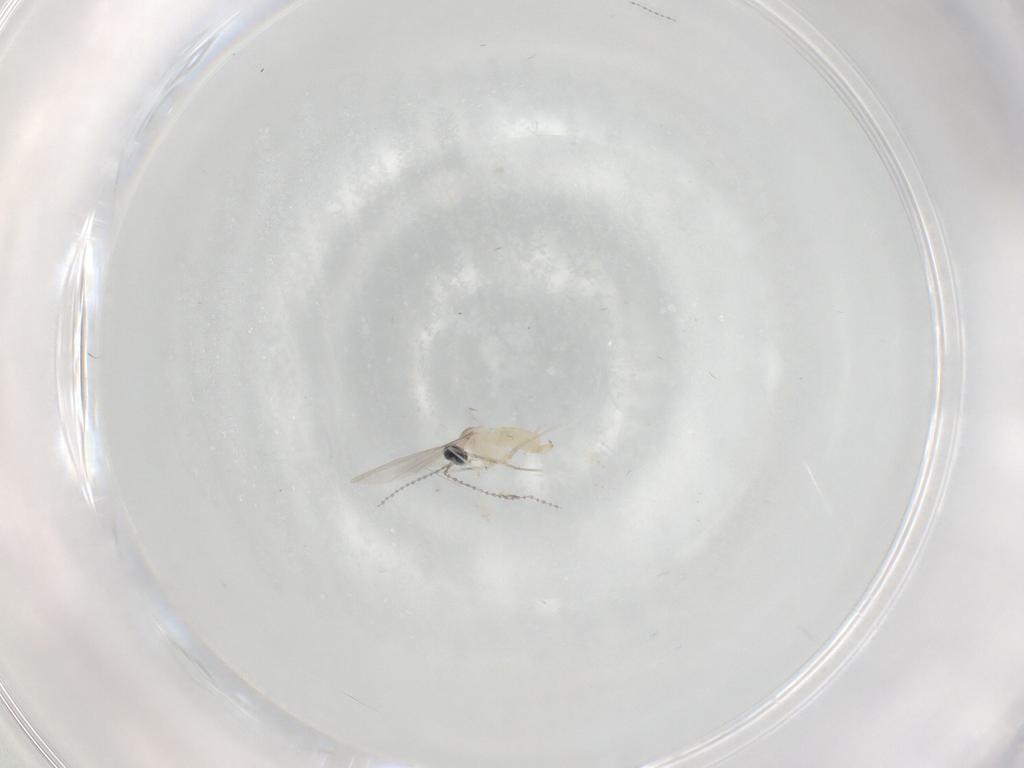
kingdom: Animalia
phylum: Arthropoda
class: Insecta
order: Diptera
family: Cecidomyiidae
